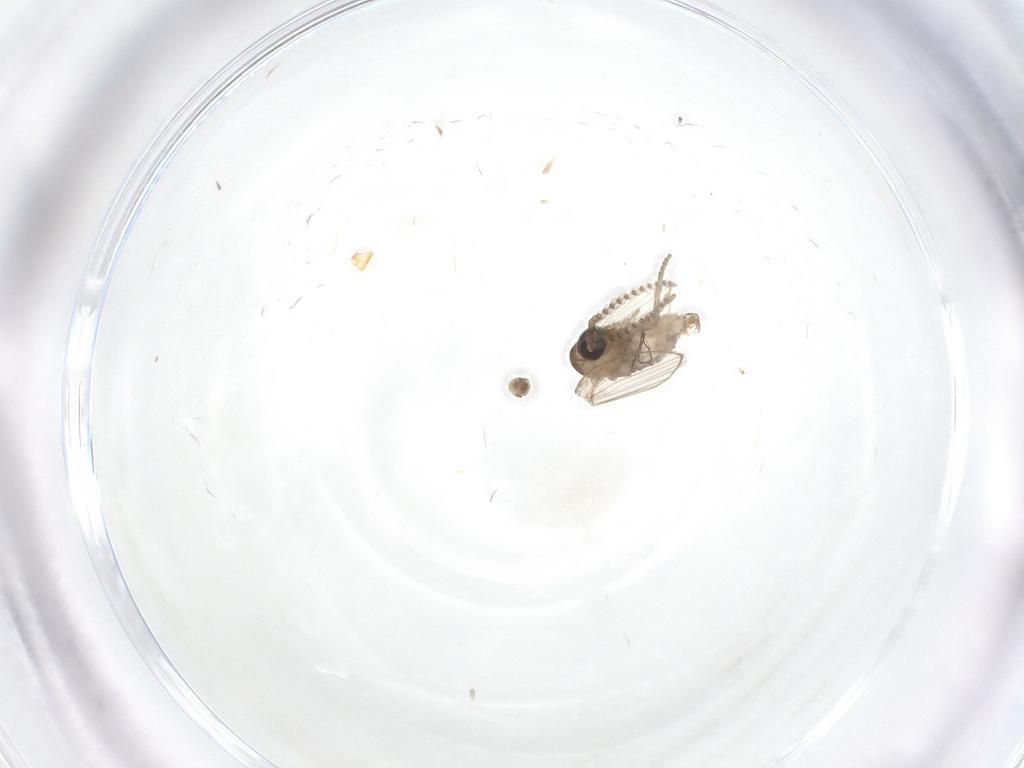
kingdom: Animalia
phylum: Arthropoda
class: Insecta
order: Diptera
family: Psychodidae
